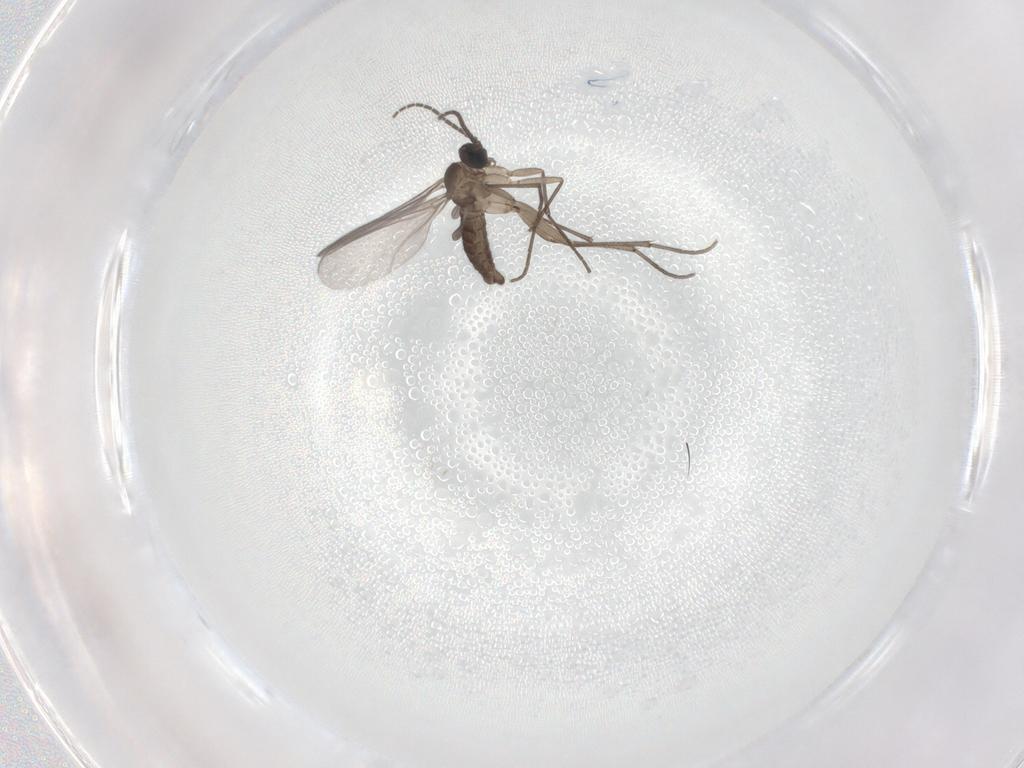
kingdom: Animalia
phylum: Arthropoda
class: Insecta
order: Diptera
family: Sciaridae
